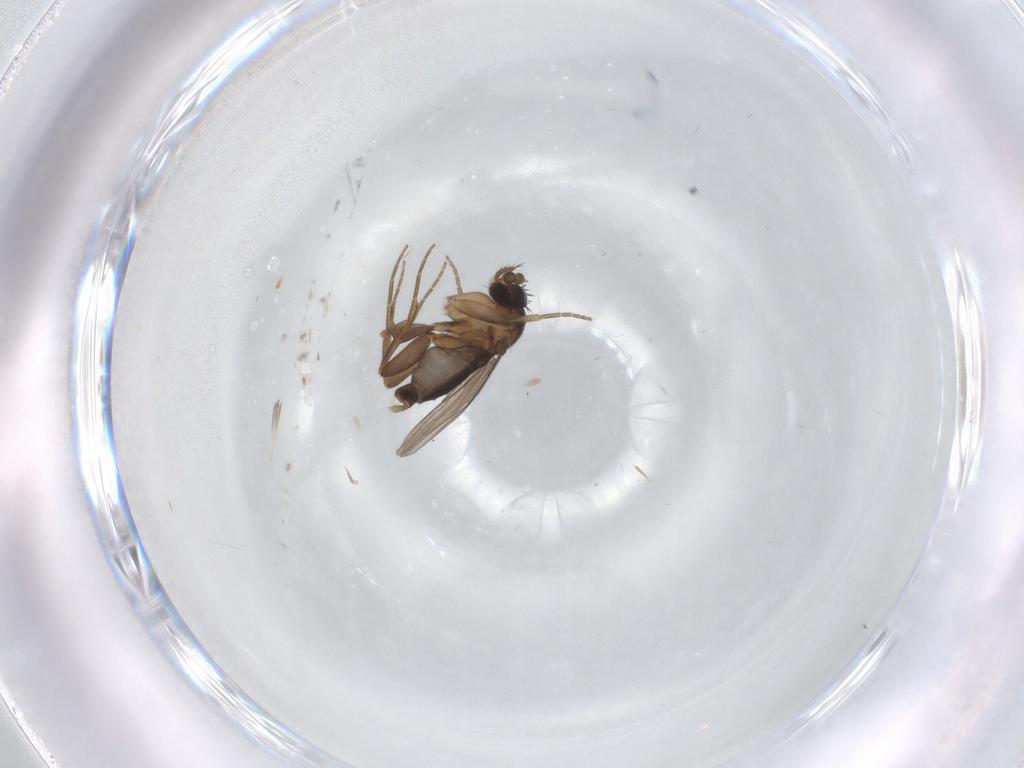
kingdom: Animalia
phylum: Arthropoda
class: Insecta
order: Diptera
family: Phoridae
